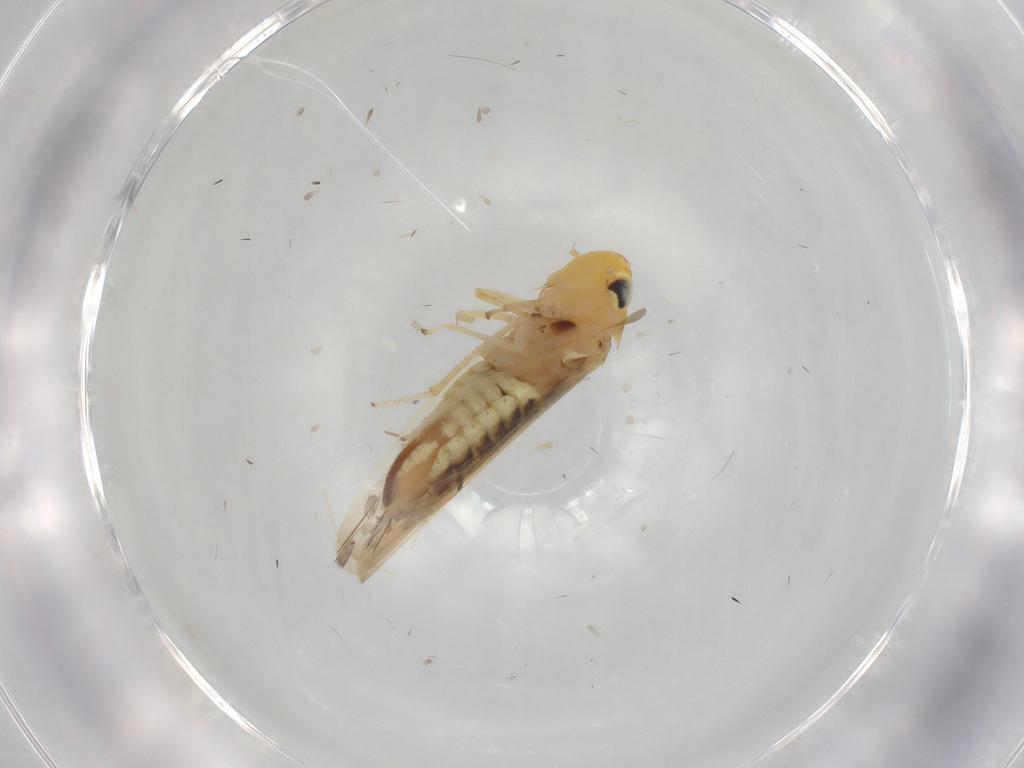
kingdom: Animalia
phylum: Arthropoda
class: Insecta
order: Hemiptera
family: Cicadellidae
